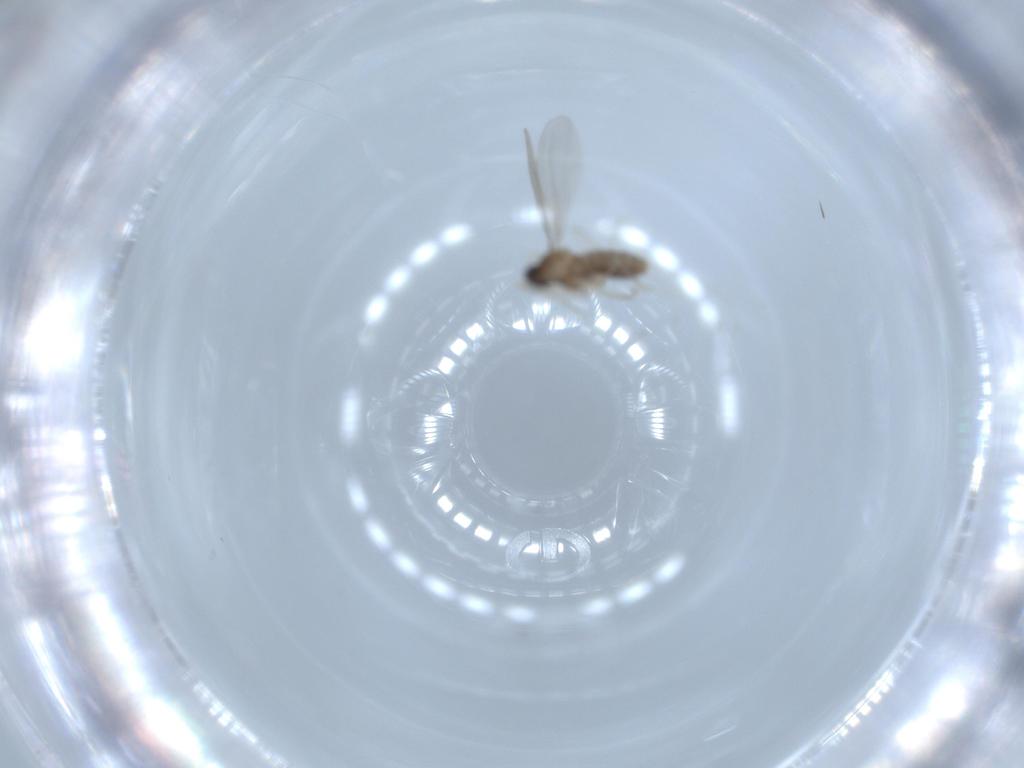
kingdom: Animalia
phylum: Arthropoda
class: Insecta
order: Diptera
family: Cecidomyiidae
